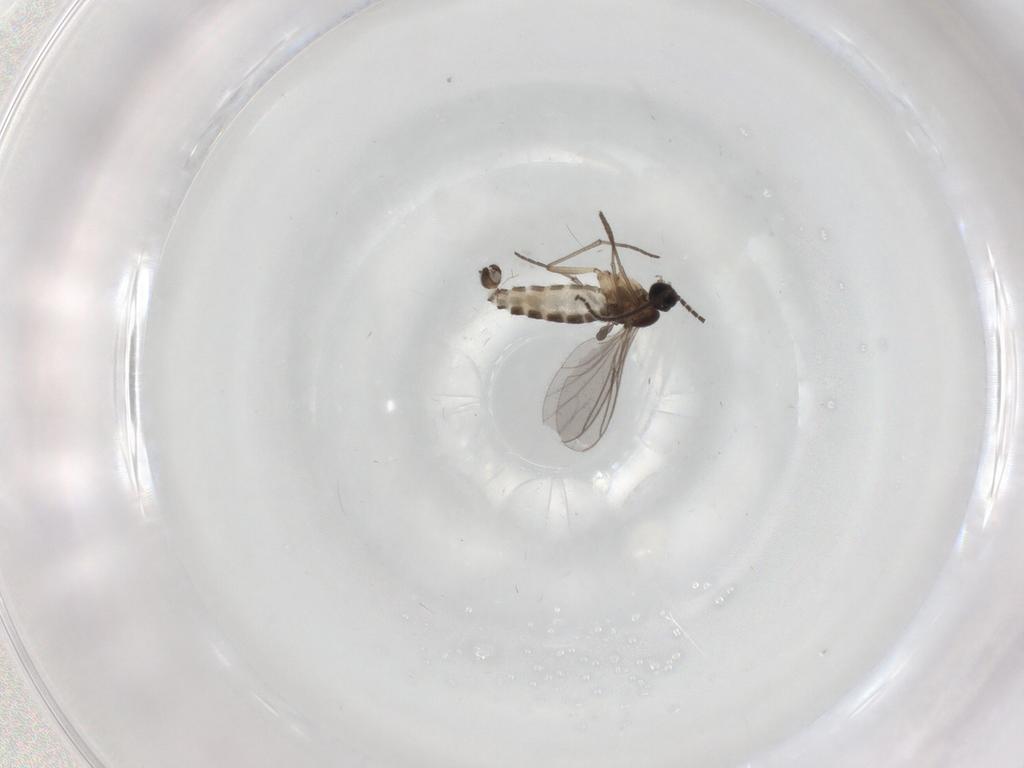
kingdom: Animalia
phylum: Arthropoda
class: Insecta
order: Diptera
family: Sciaridae
